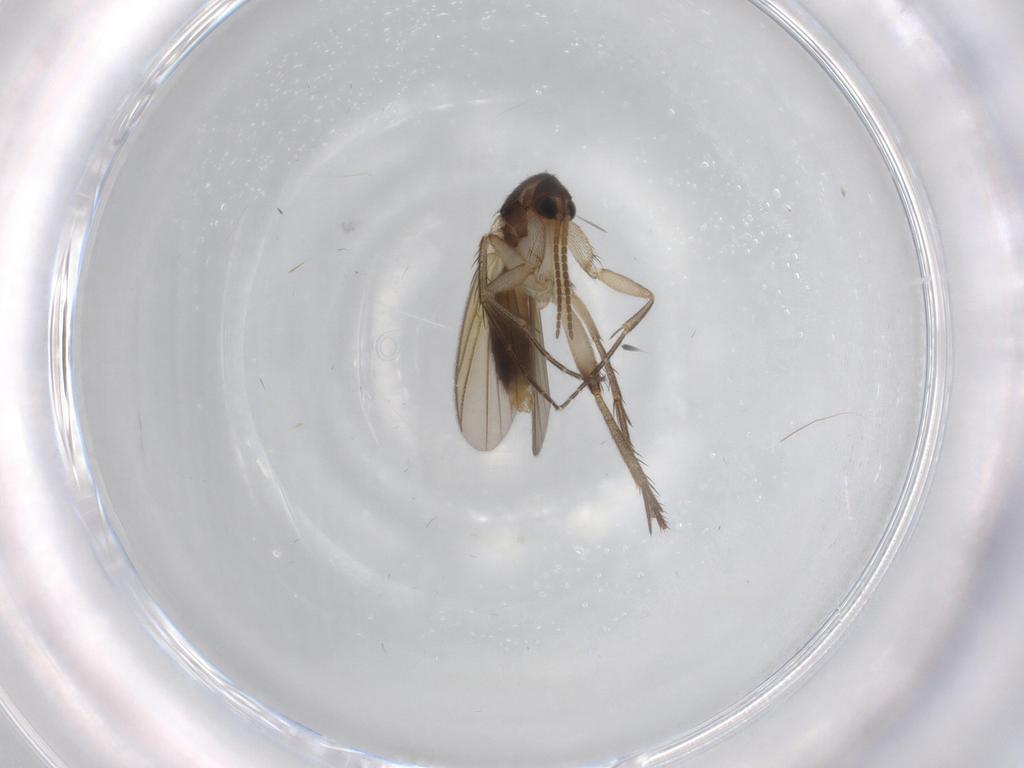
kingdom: Animalia
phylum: Arthropoda
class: Insecta
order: Diptera
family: Mycetophilidae
